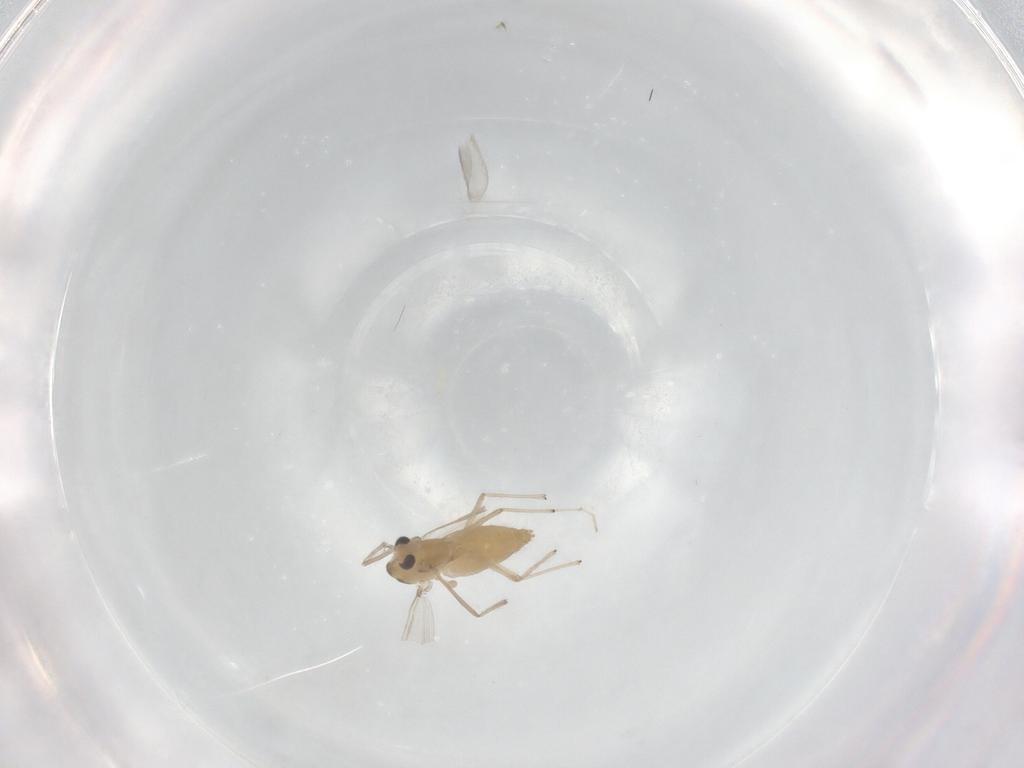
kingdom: Animalia
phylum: Arthropoda
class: Insecta
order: Diptera
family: Chironomidae
